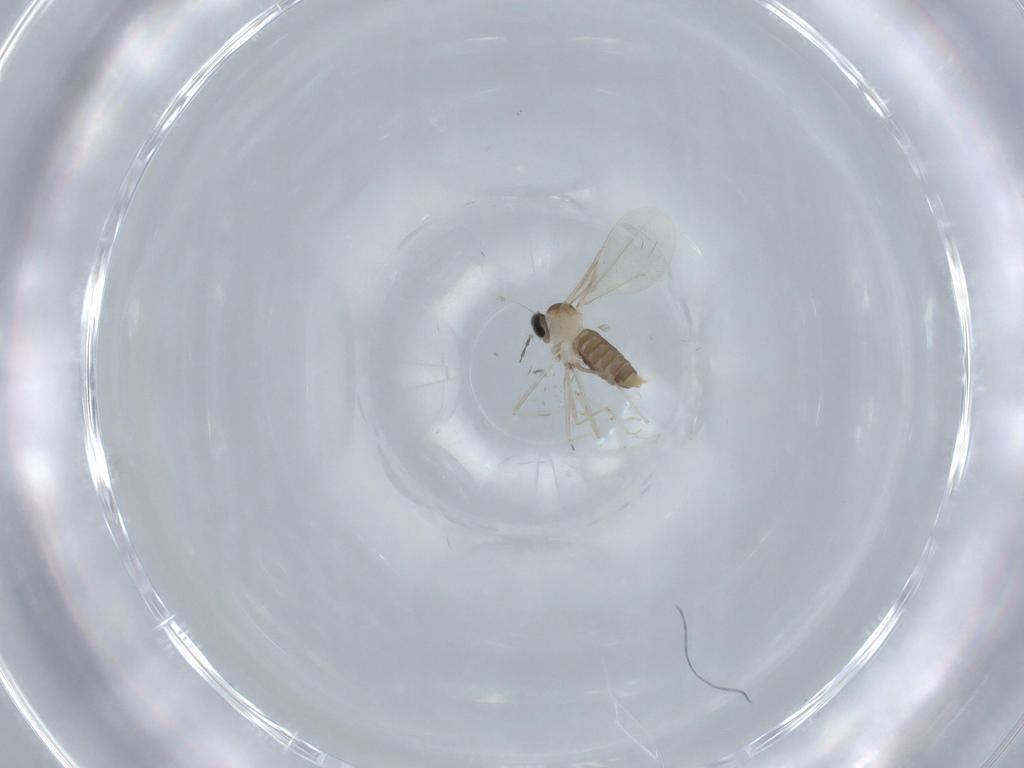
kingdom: Animalia
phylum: Arthropoda
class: Insecta
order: Diptera
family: Cecidomyiidae
